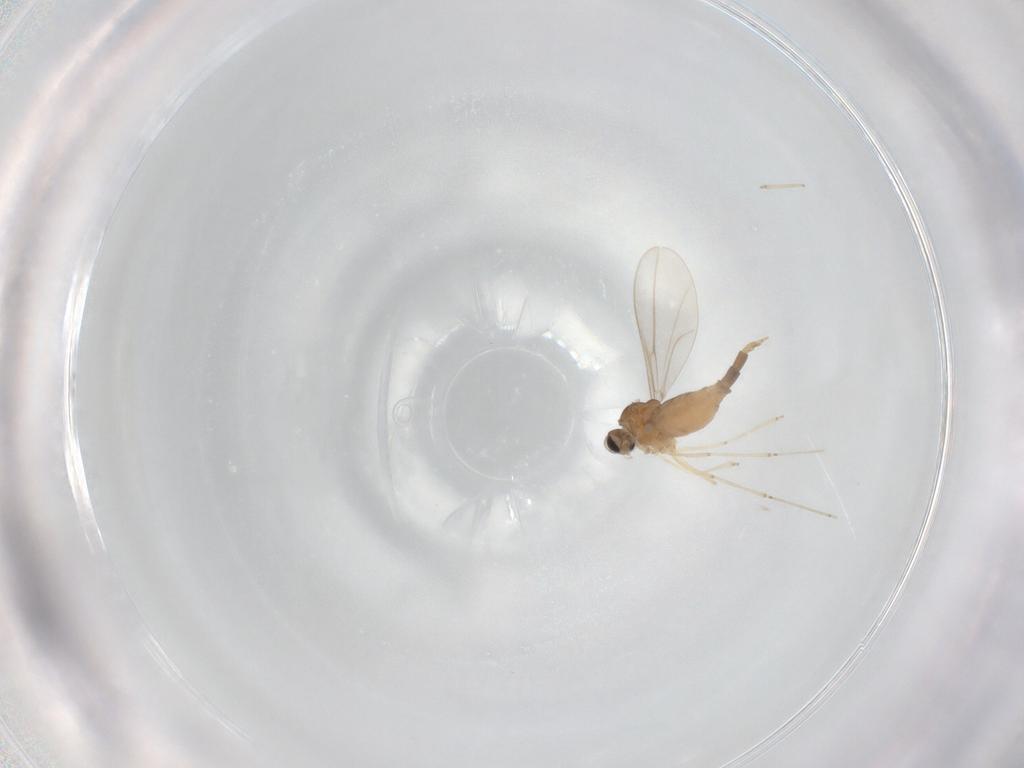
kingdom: Animalia
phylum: Arthropoda
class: Insecta
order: Diptera
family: Cecidomyiidae
